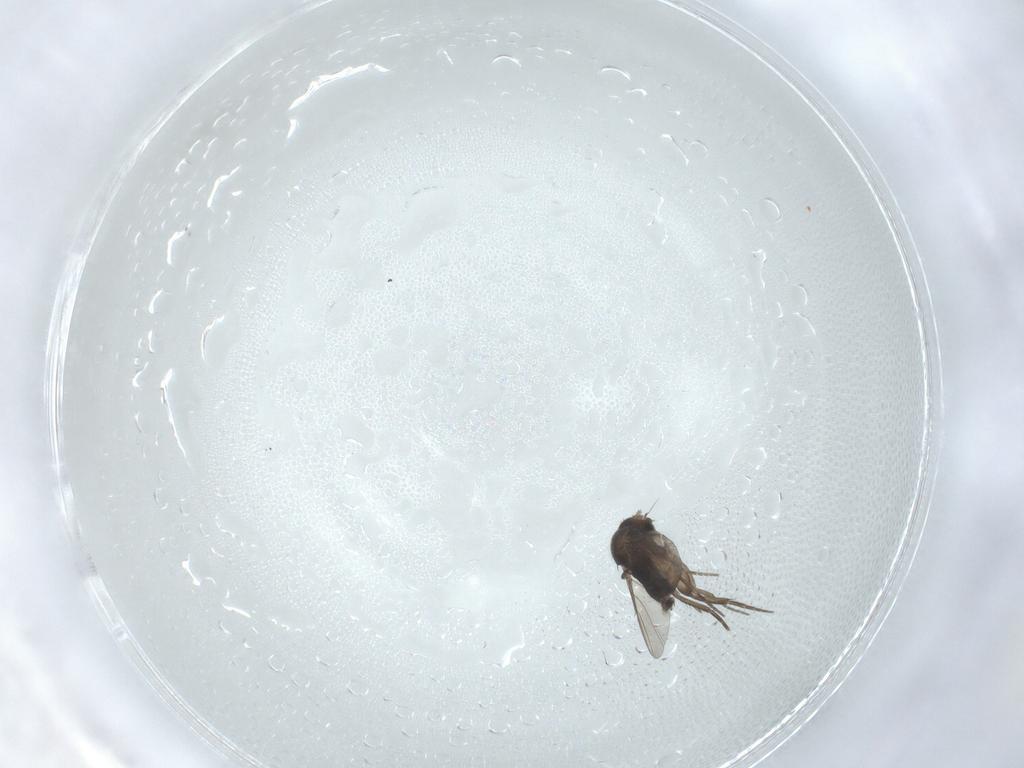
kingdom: Animalia
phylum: Arthropoda
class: Insecta
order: Diptera
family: Phoridae
